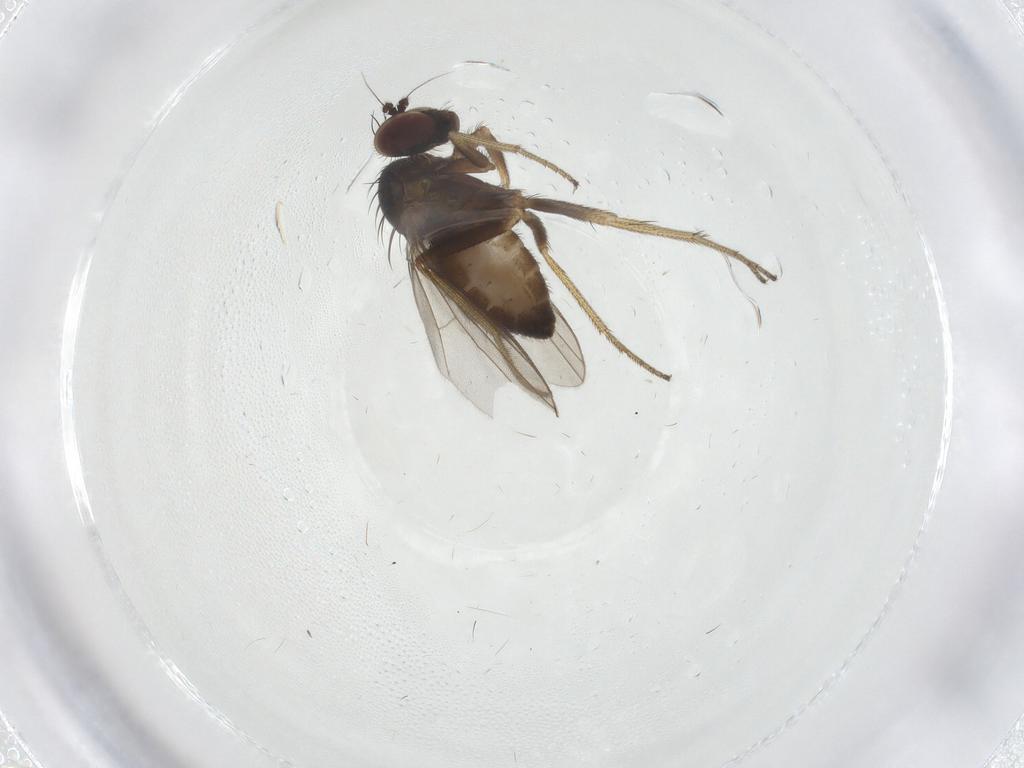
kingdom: Animalia
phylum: Arthropoda
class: Insecta
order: Diptera
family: Dolichopodidae
